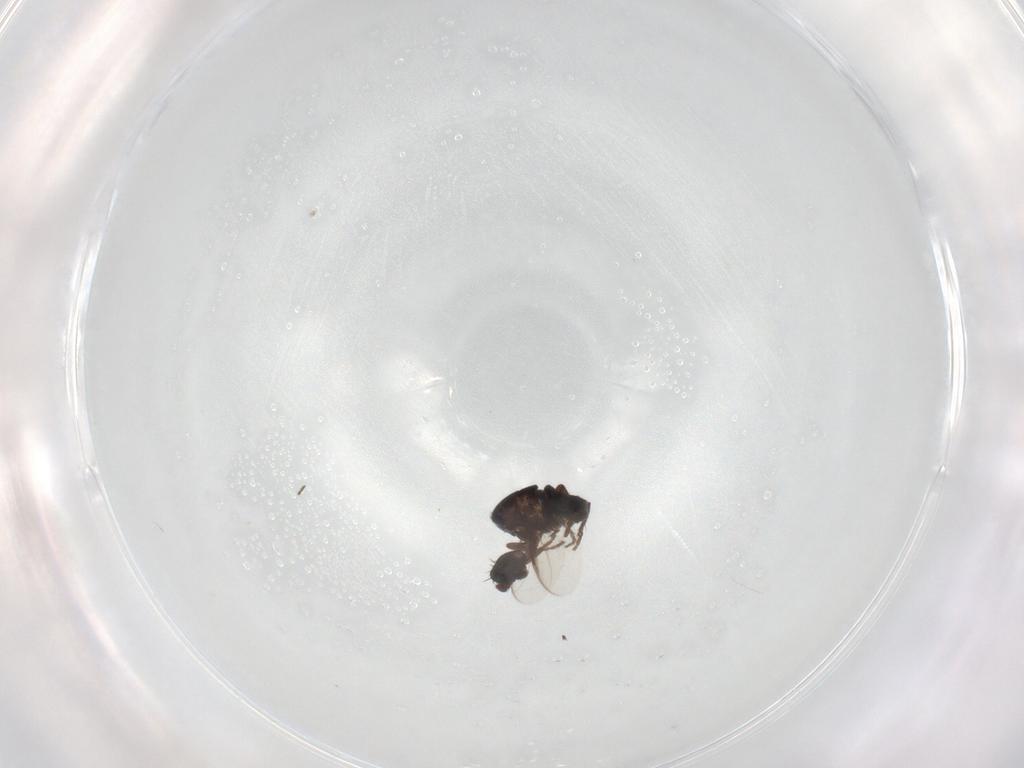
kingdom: Animalia
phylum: Arthropoda
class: Insecta
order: Diptera
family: Sphaeroceridae
